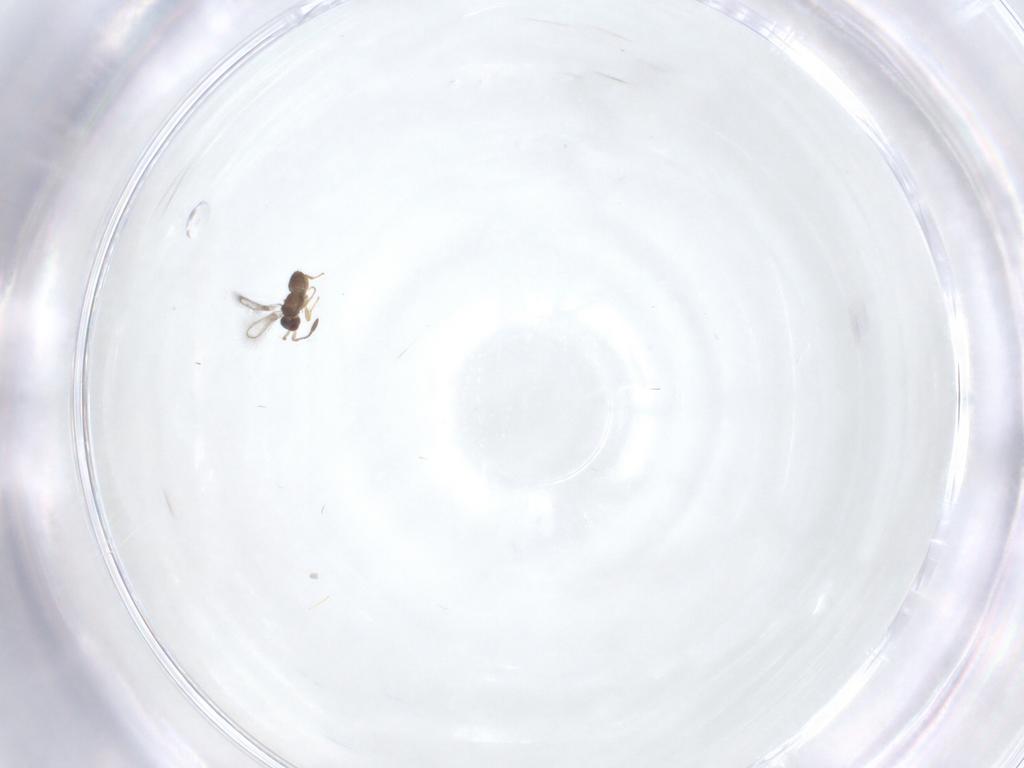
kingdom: Animalia
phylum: Arthropoda
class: Insecta
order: Hymenoptera
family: Mymaridae
